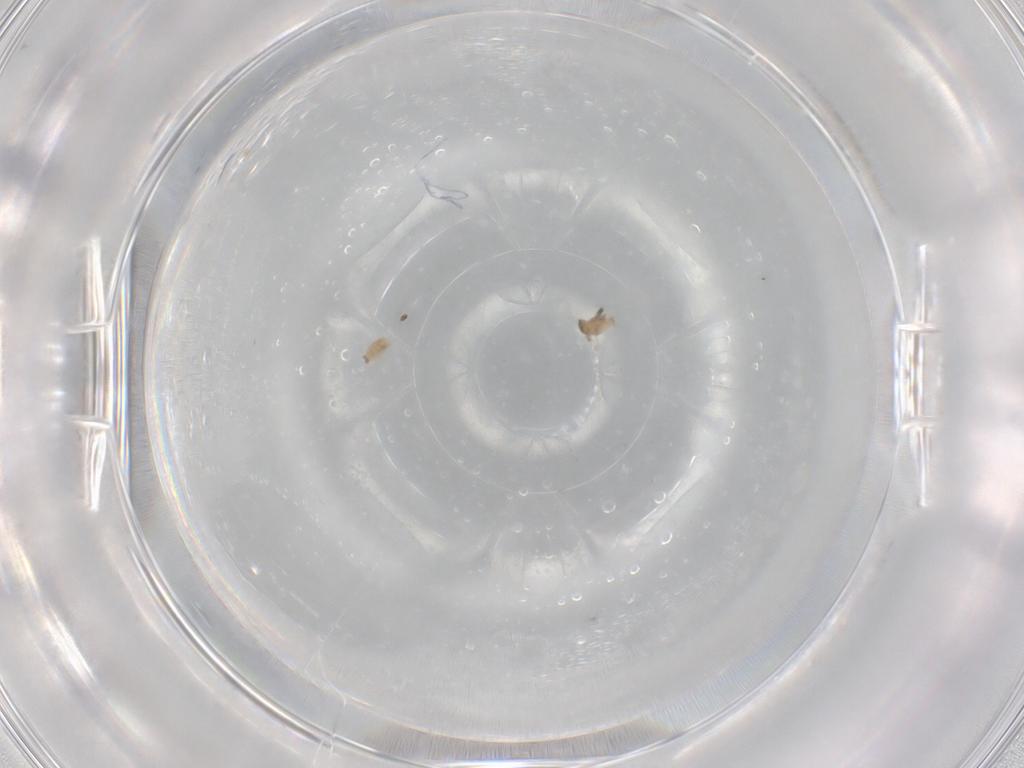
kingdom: Animalia
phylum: Arthropoda
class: Insecta
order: Diptera
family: Cecidomyiidae
